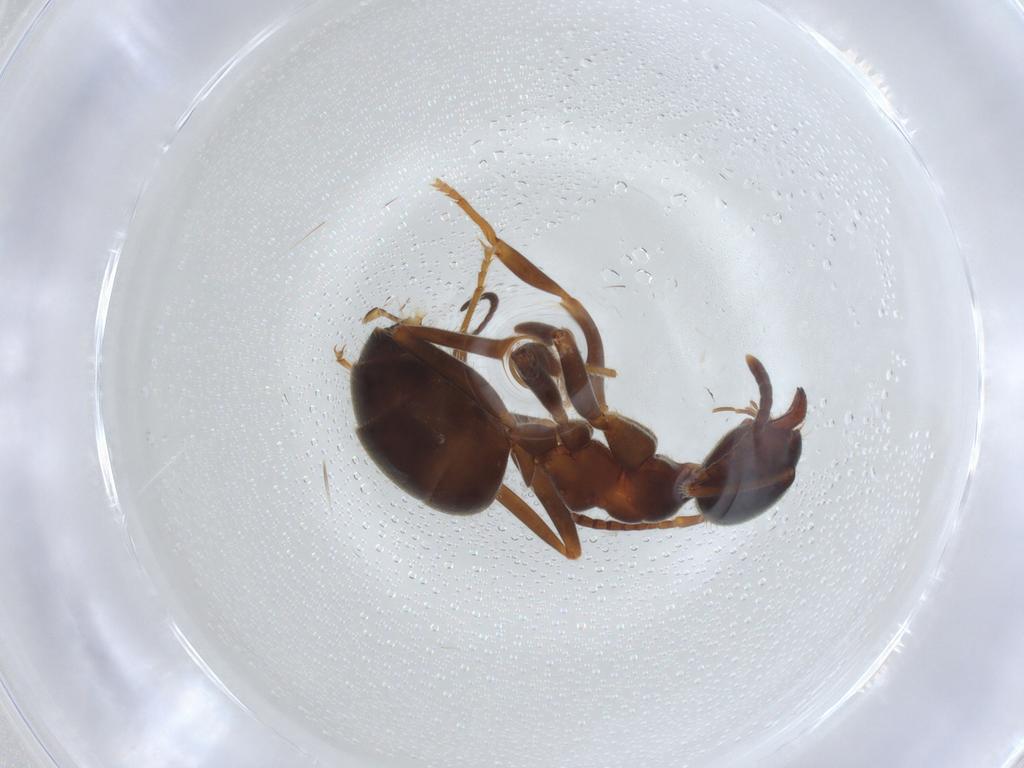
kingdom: Animalia
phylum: Arthropoda
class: Insecta
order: Hymenoptera
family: Formicidae
